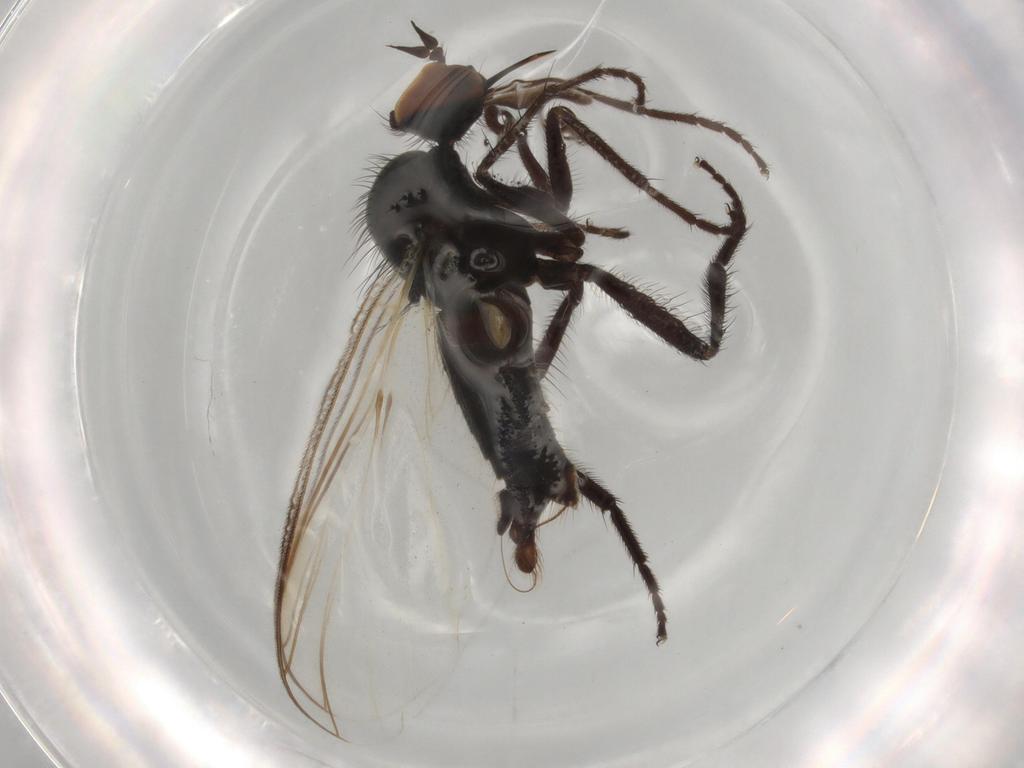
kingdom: Animalia
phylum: Arthropoda
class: Insecta
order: Diptera
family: Empididae
